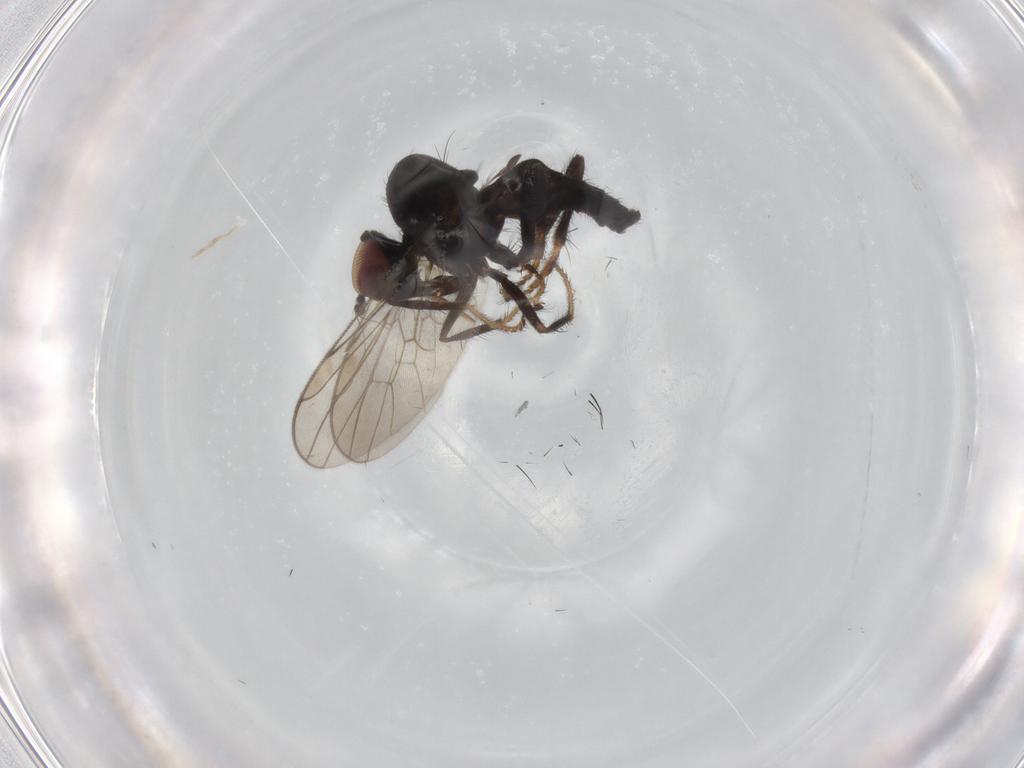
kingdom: Animalia
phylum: Arthropoda
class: Insecta
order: Diptera
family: Hybotidae
